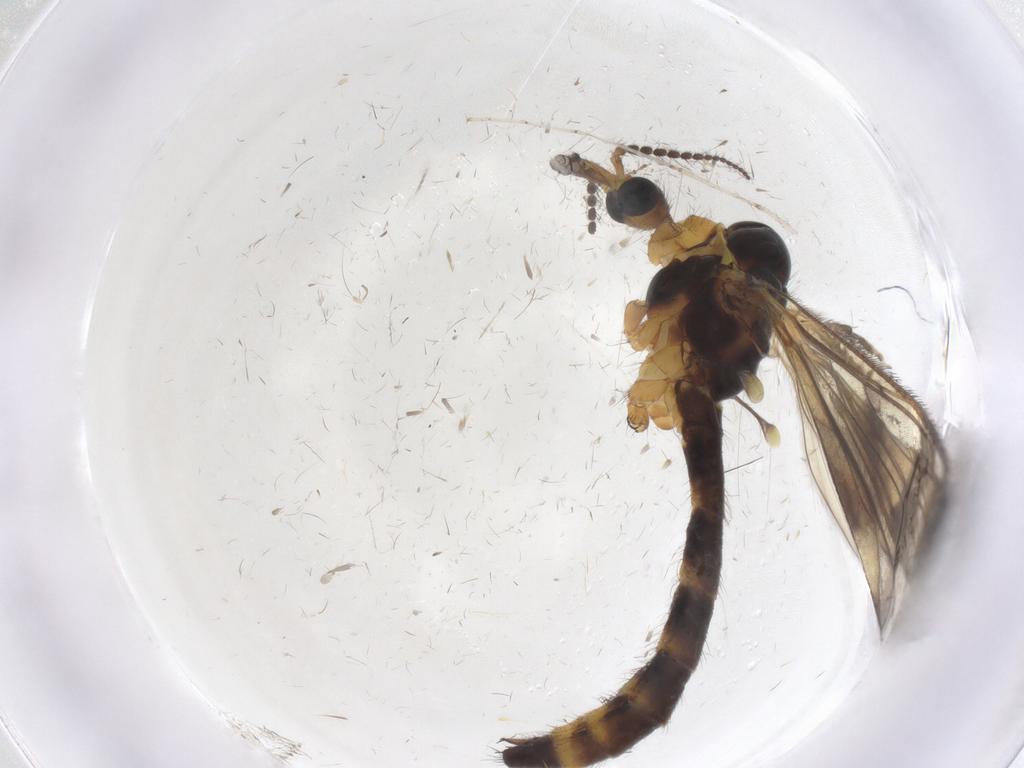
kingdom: Animalia
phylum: Arthropoda
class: Insecta
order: Diptera
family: Limoniidae
